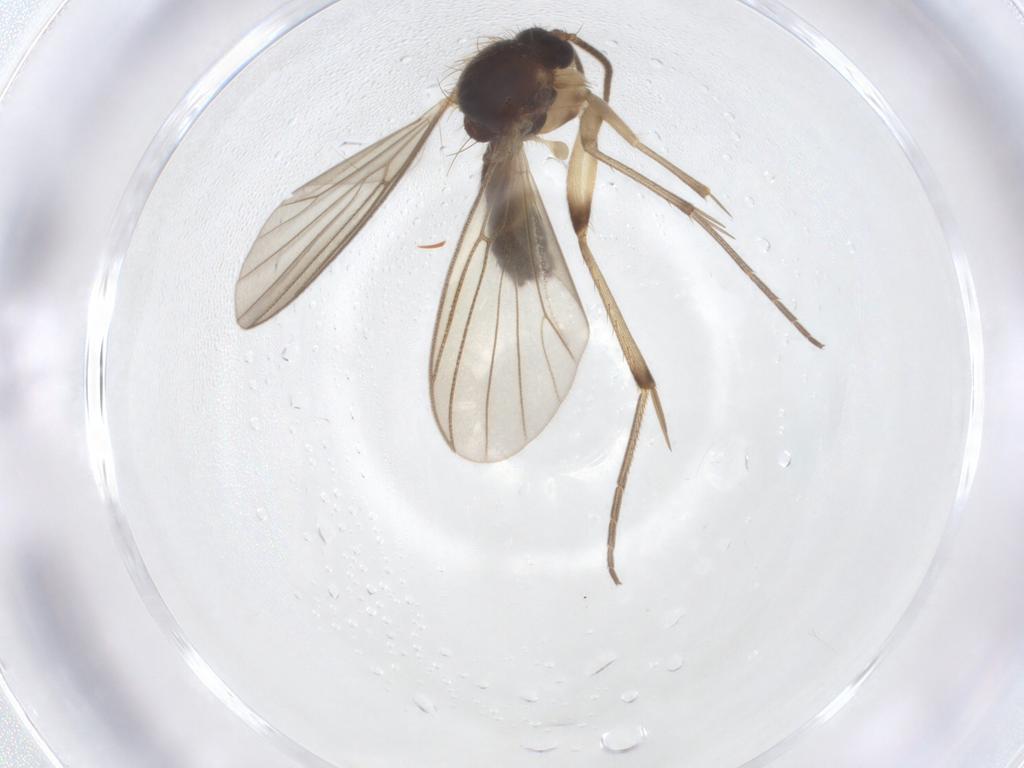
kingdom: Animalia
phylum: Arthropoda
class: Insecta
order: Diptera
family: Mycetophilidae
